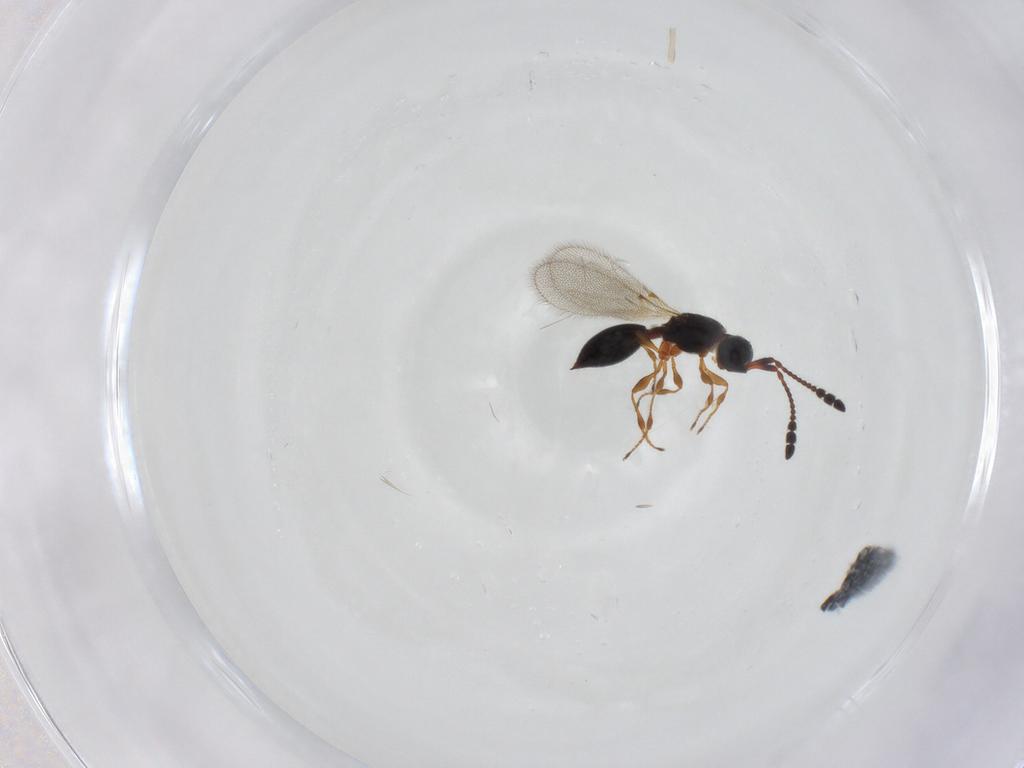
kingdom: Animalia
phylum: Arthropoda
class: Insecta
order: Hymenoptera
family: Diapriidae
